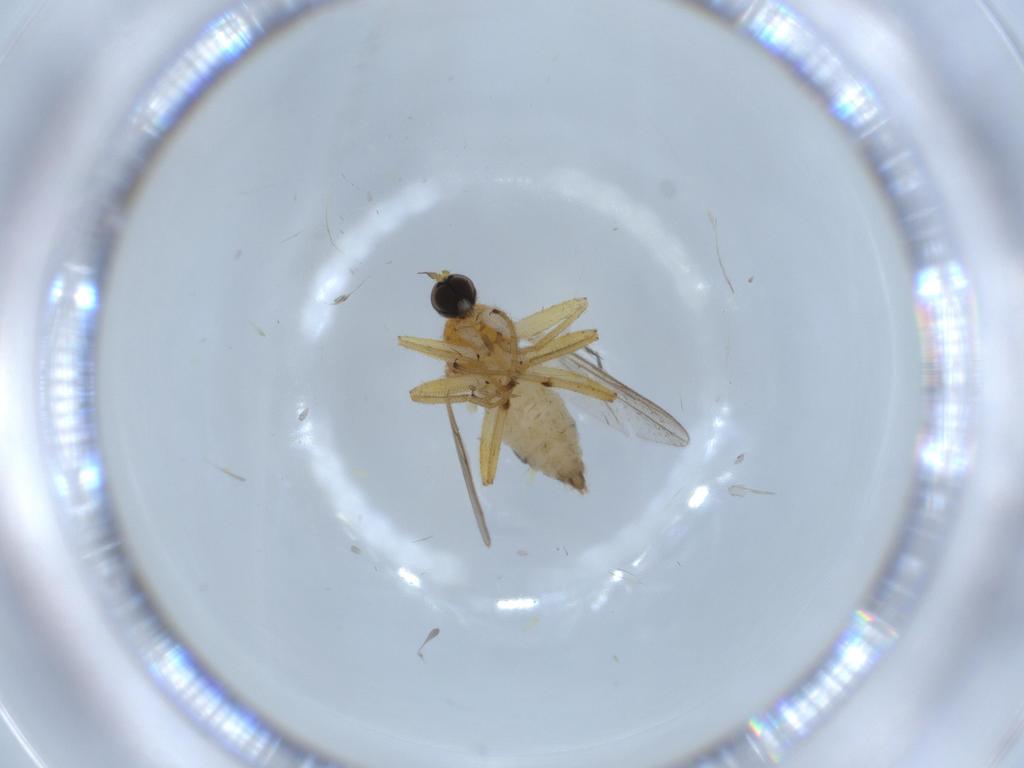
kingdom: Animalia
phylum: Arthropoda
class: Insecta
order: Diptera
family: Hybotidae
